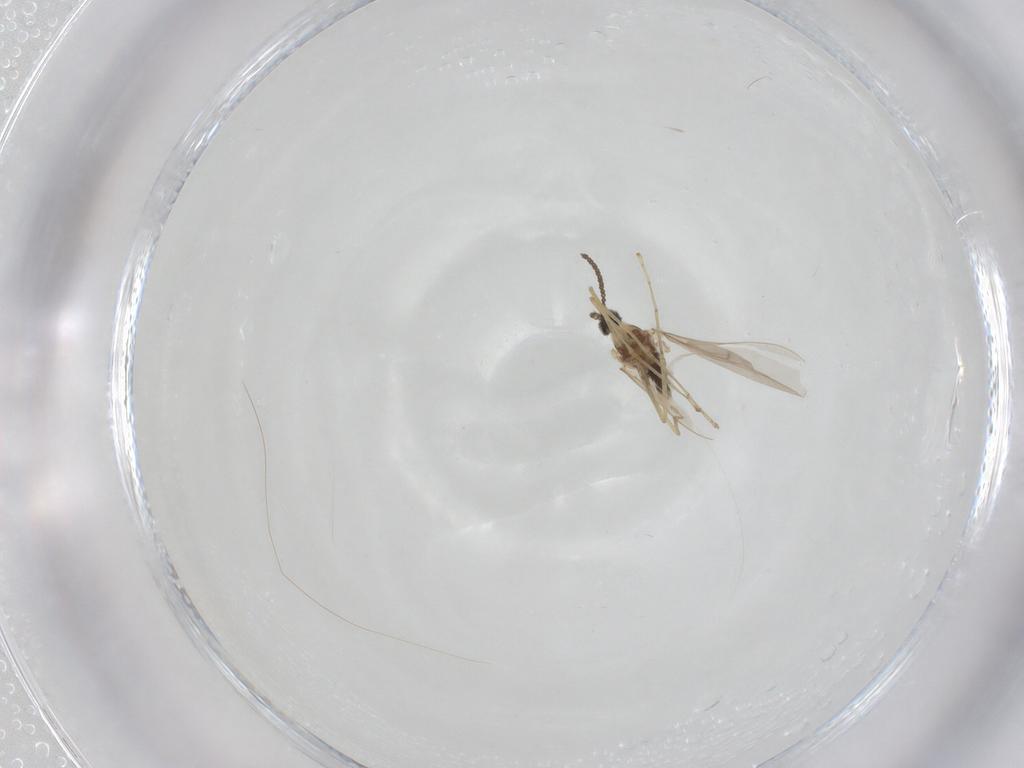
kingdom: Animalia
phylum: Arthropoda
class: Insecta
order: Diptera
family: Cecidomyiidae
